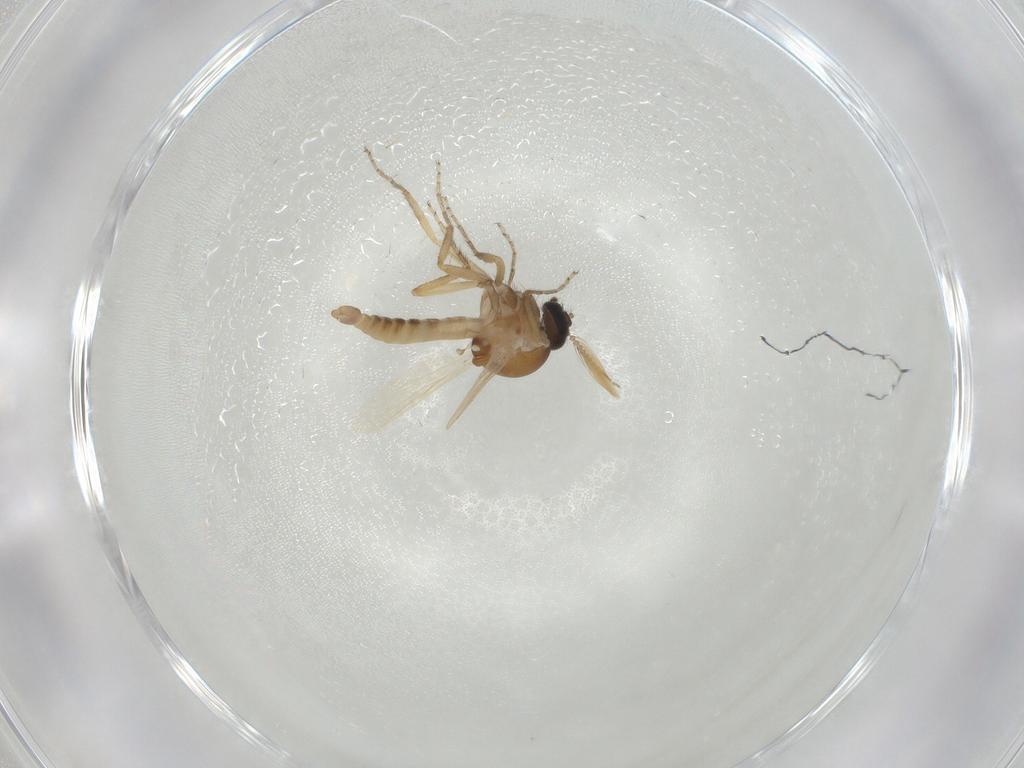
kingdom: Animalia
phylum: Arthropoda
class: Insecta
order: Diptera
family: Ceratopogonidae
